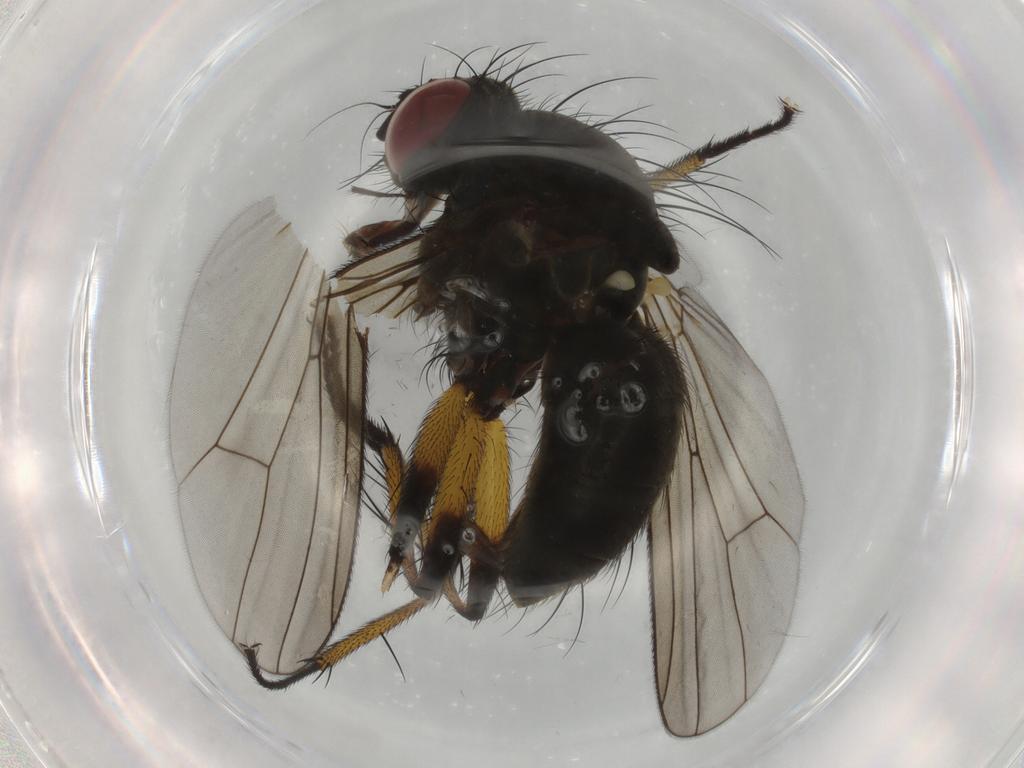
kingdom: Animalia
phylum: Arthropoda
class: Insecta
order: Diptera
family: Muscidae
